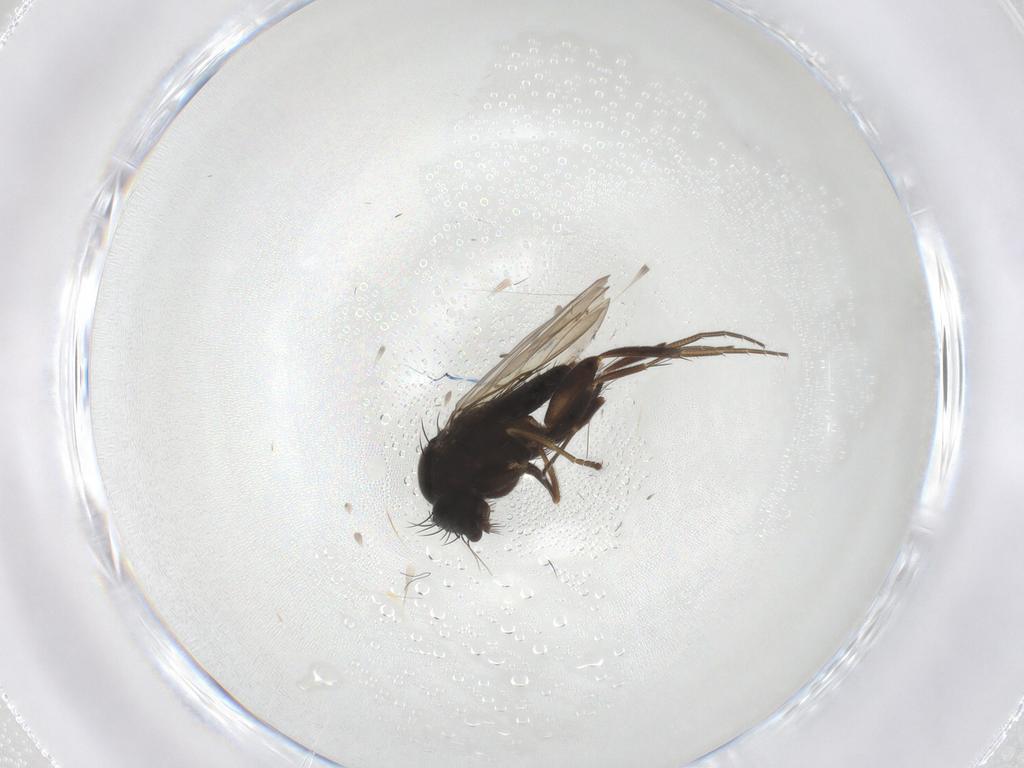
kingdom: Animalia
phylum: Arthropoda
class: Insecta
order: Diptera
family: Phoridae
